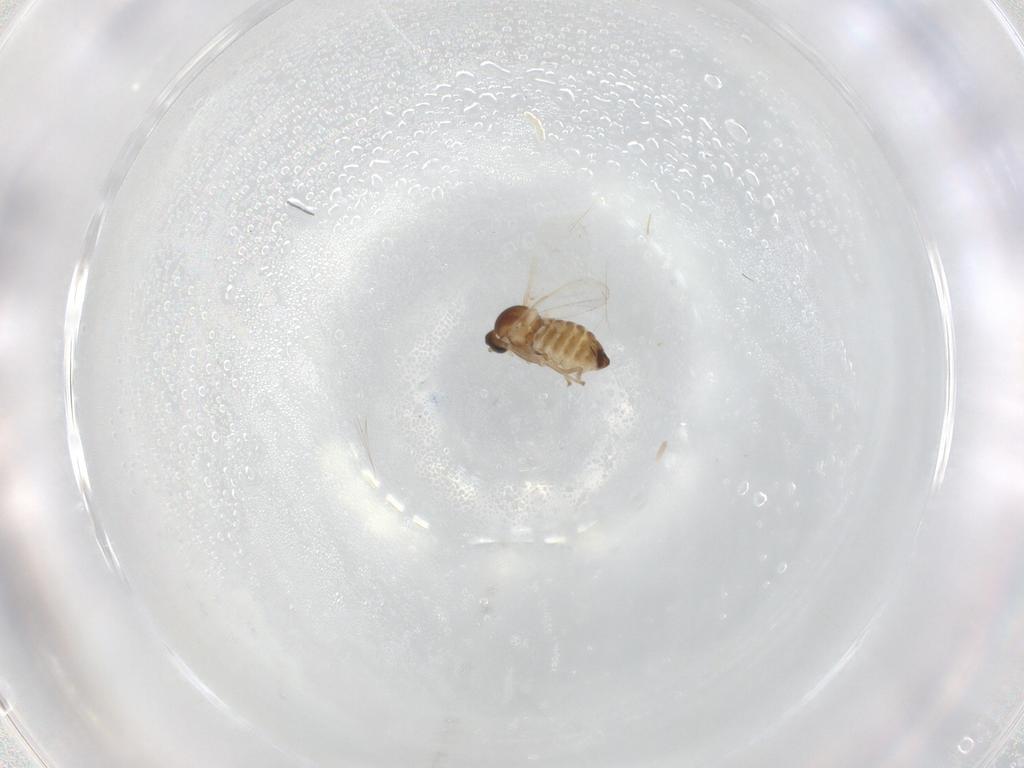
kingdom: Animalia
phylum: Arthropoda
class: Insecta
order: Diptera
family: Cecidomyiidae
